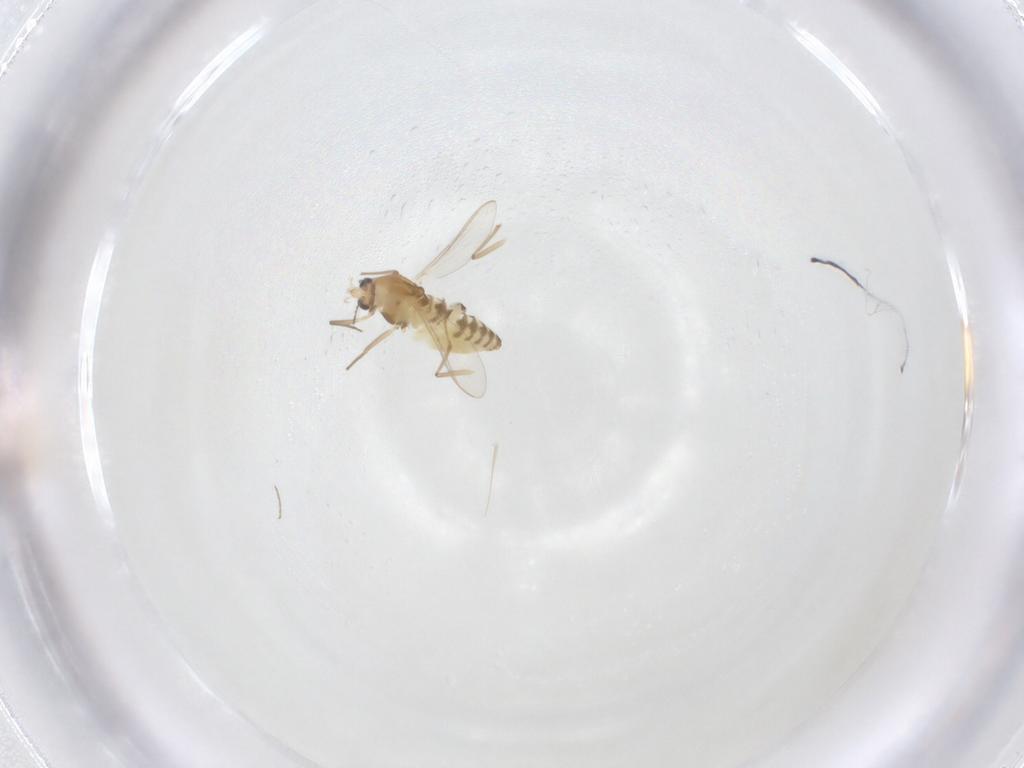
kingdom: Animalia
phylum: Arthropoda
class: Insecta
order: Diptera
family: Chironomidae
